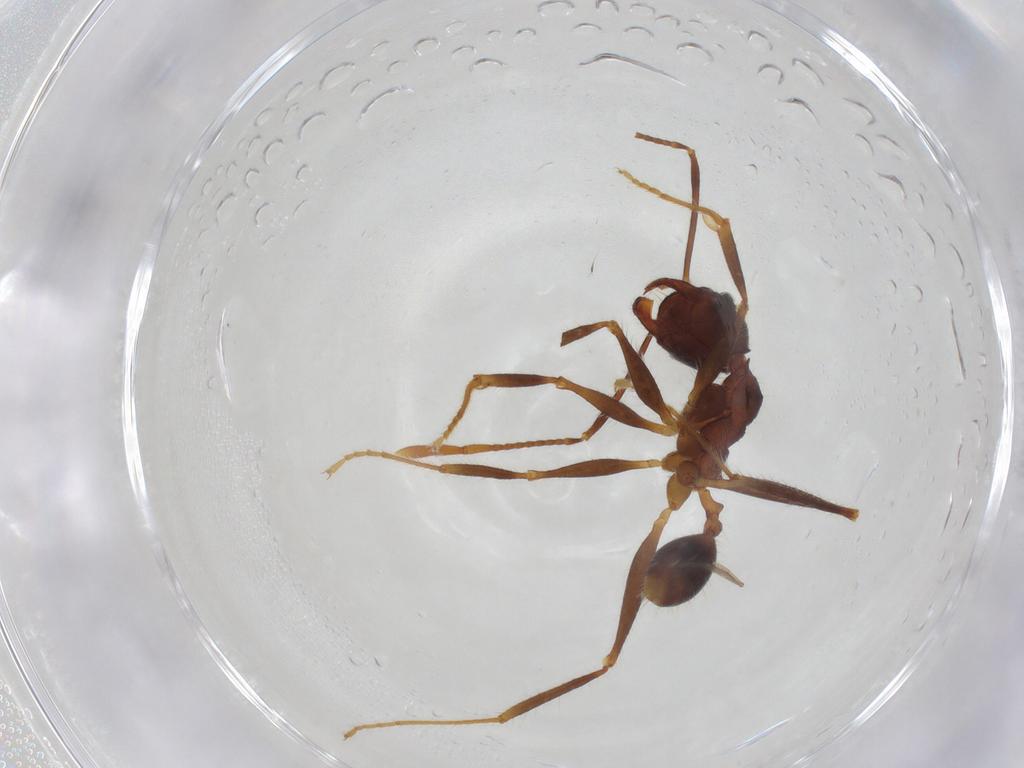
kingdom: Animalia
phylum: Arthropoda
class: Insecta
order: Hymenoptera
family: Formicidae
